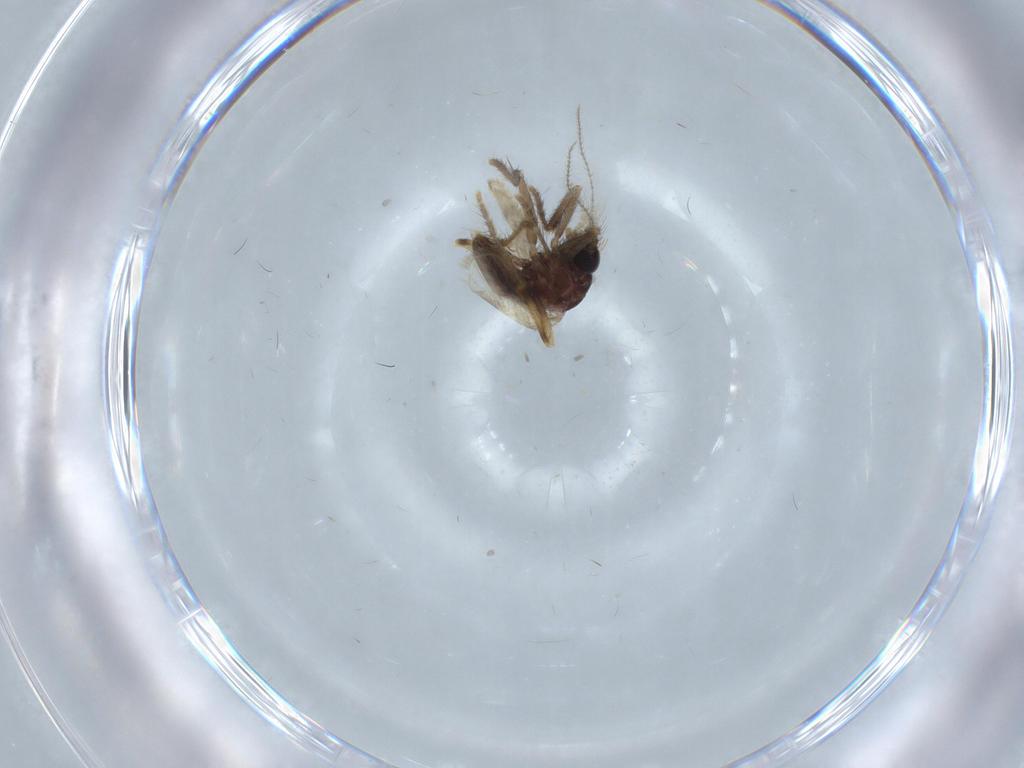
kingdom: Animalia
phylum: Arthropoda
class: Insecta
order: Diptera
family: Corethrellidae
